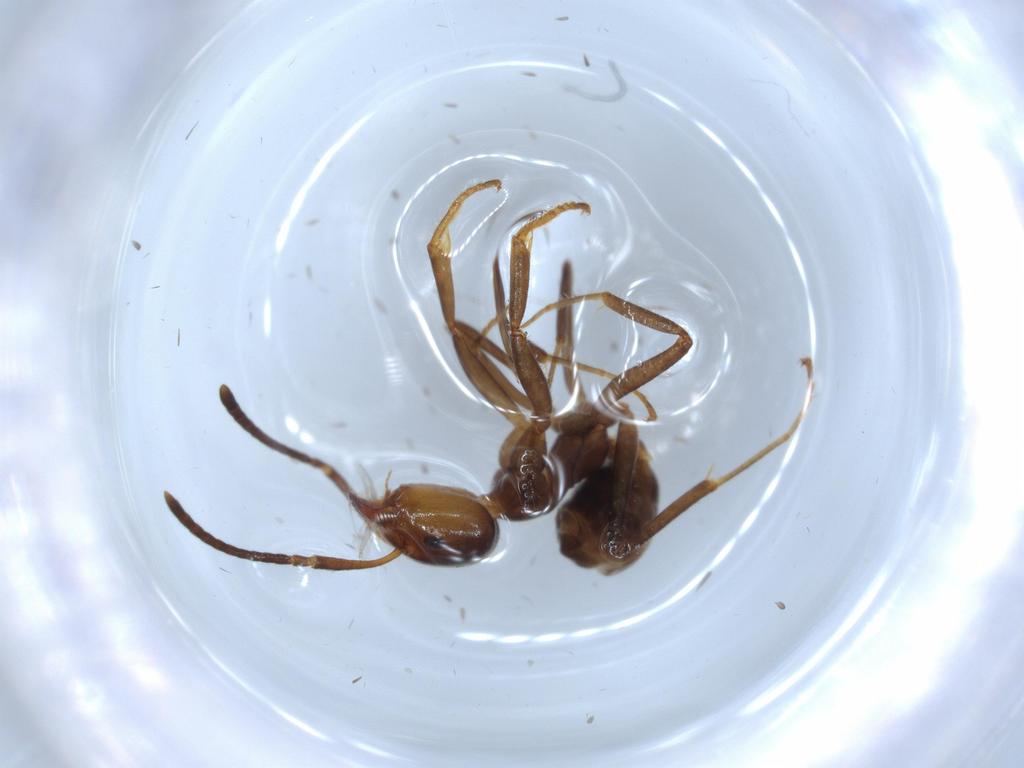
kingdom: Animalia
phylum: Arthropoda
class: Insecta
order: Hymenoptera
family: Formicidae
